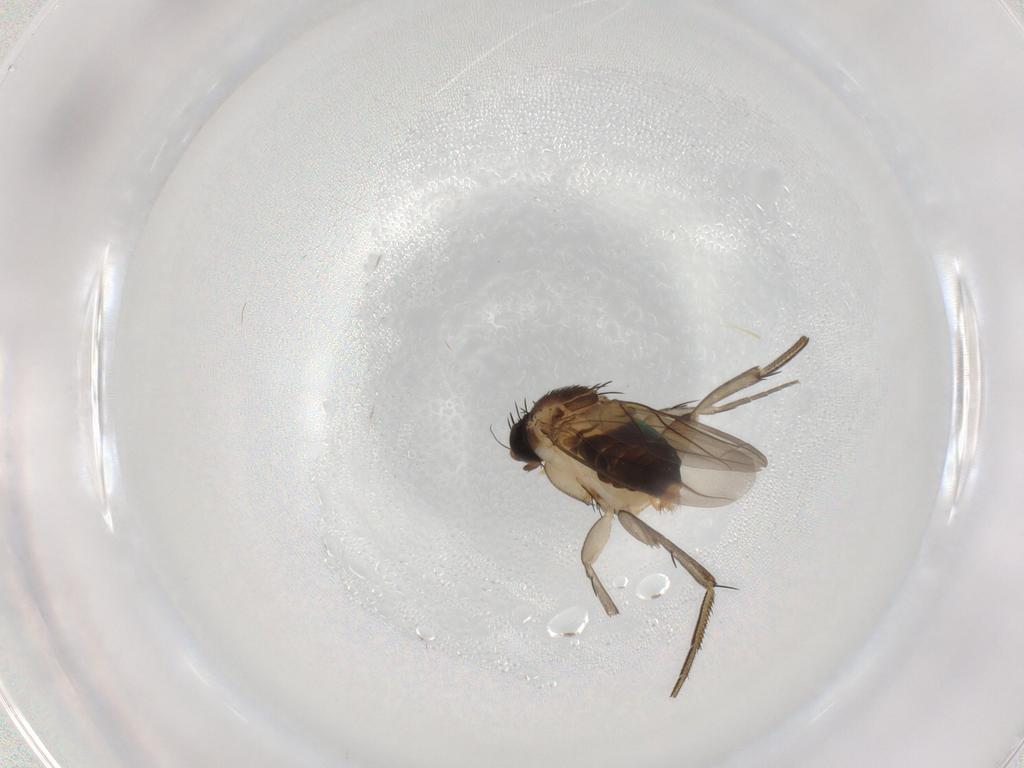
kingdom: Animalia
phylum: Arthropoda
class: Insecta
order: Diptera
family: Phoridae
